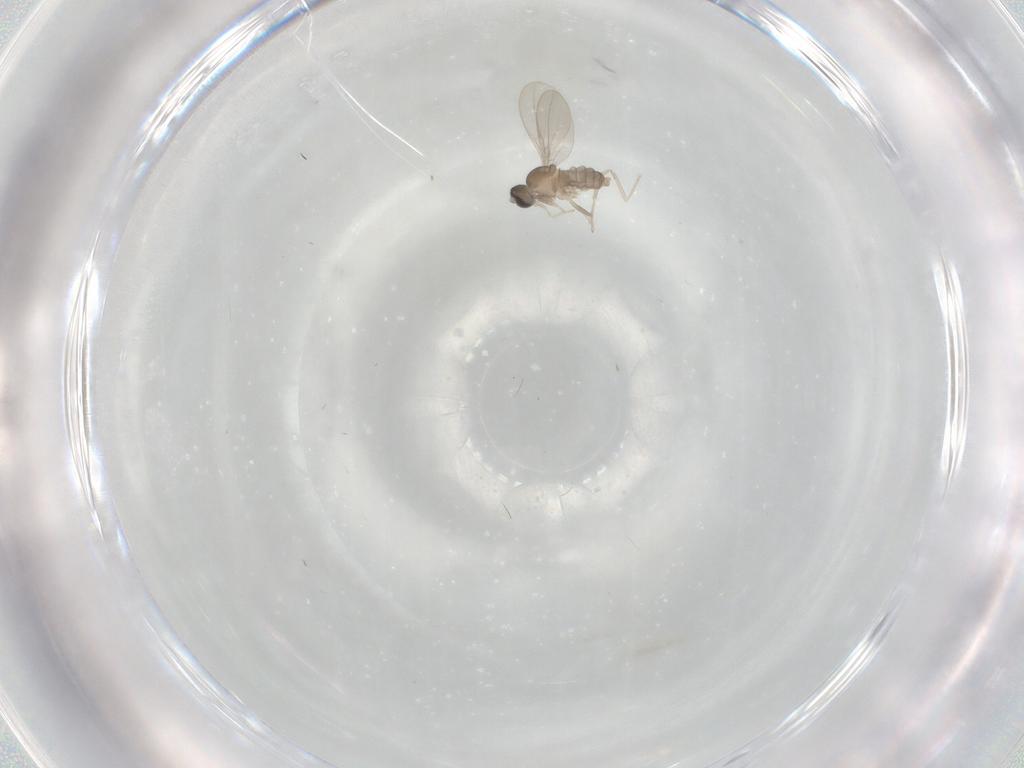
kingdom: Animalia
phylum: Arthropoda
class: Insecta
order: Diptera
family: Cecidomyiidae
